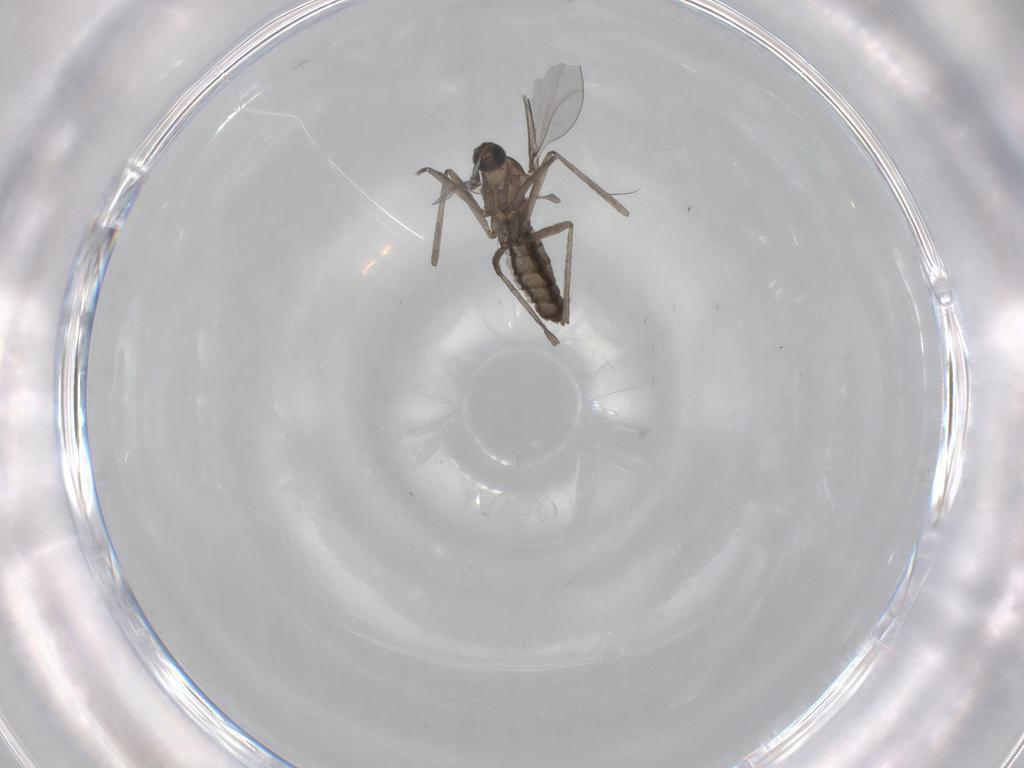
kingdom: Animalia
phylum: Arthropoda
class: Insecta
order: Diptera
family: Cecidomyiidae
